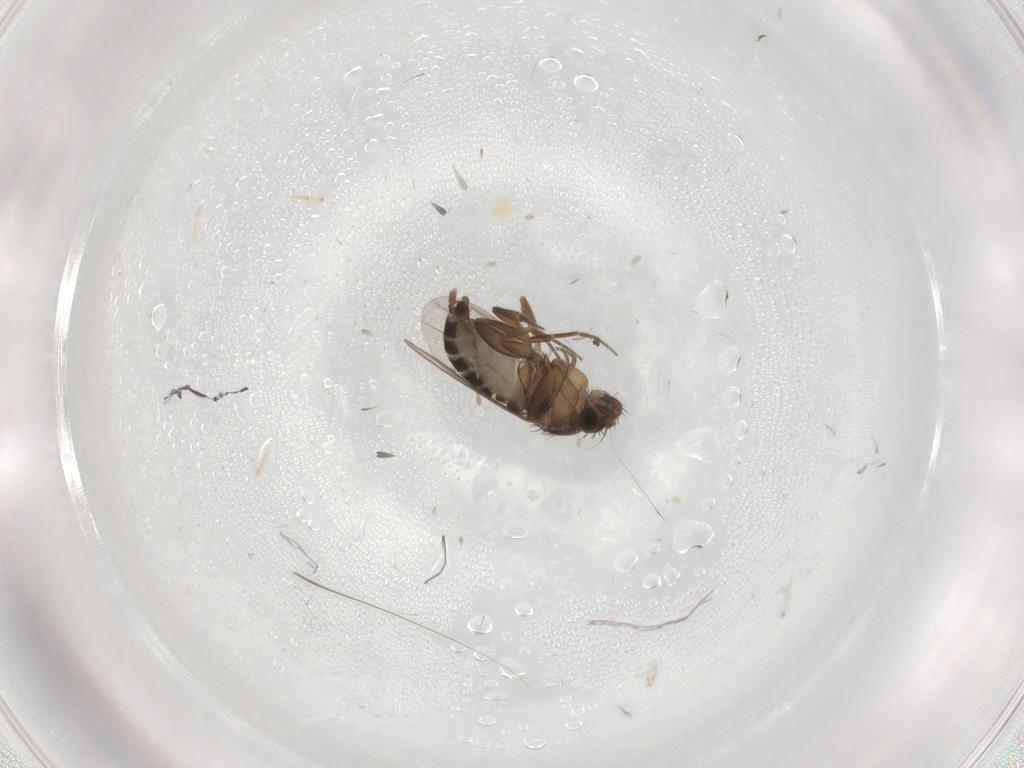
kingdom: Animalia
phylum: Arthropoda
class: Insecta
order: Diptera
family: Phoridae
